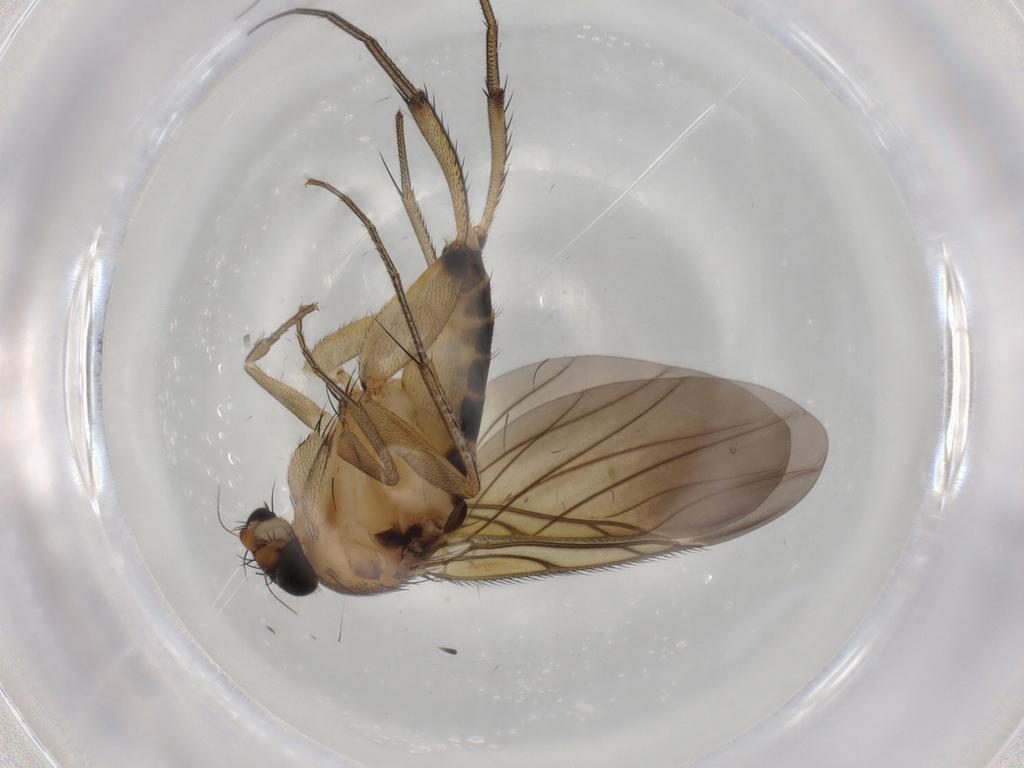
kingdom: Animalia
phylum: Arthropoda
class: Insecta
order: Diptera
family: Phoridae
